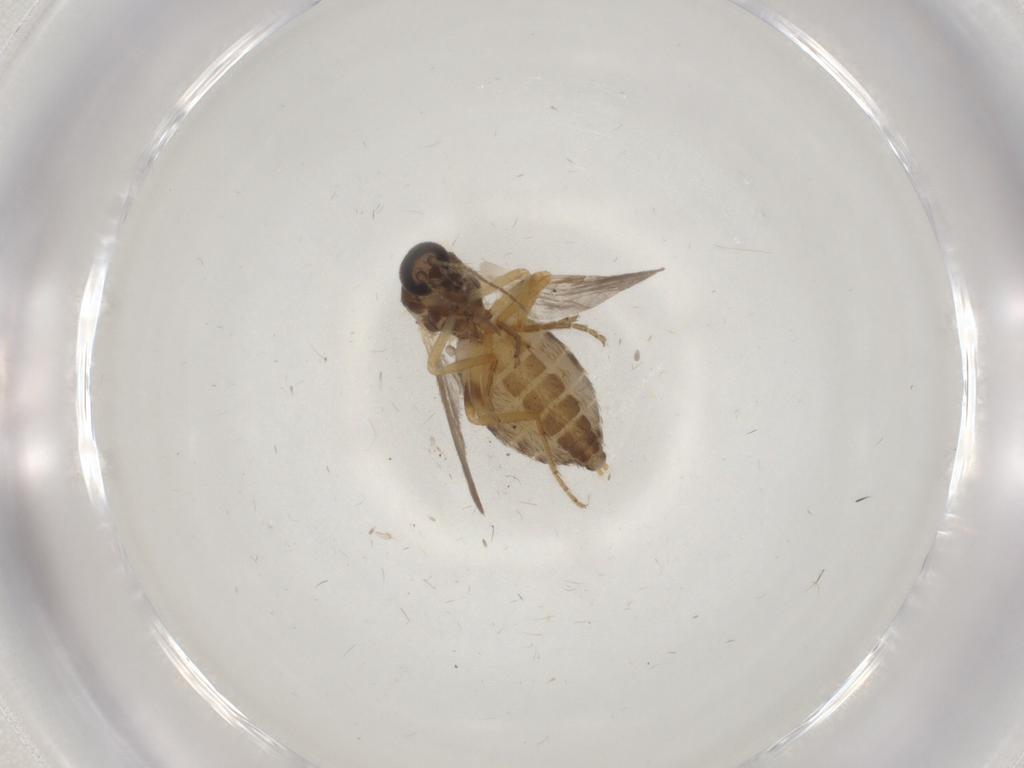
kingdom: Animalia
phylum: Arthropoda
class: Insecta
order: Diptera
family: Ceratopogonidae
